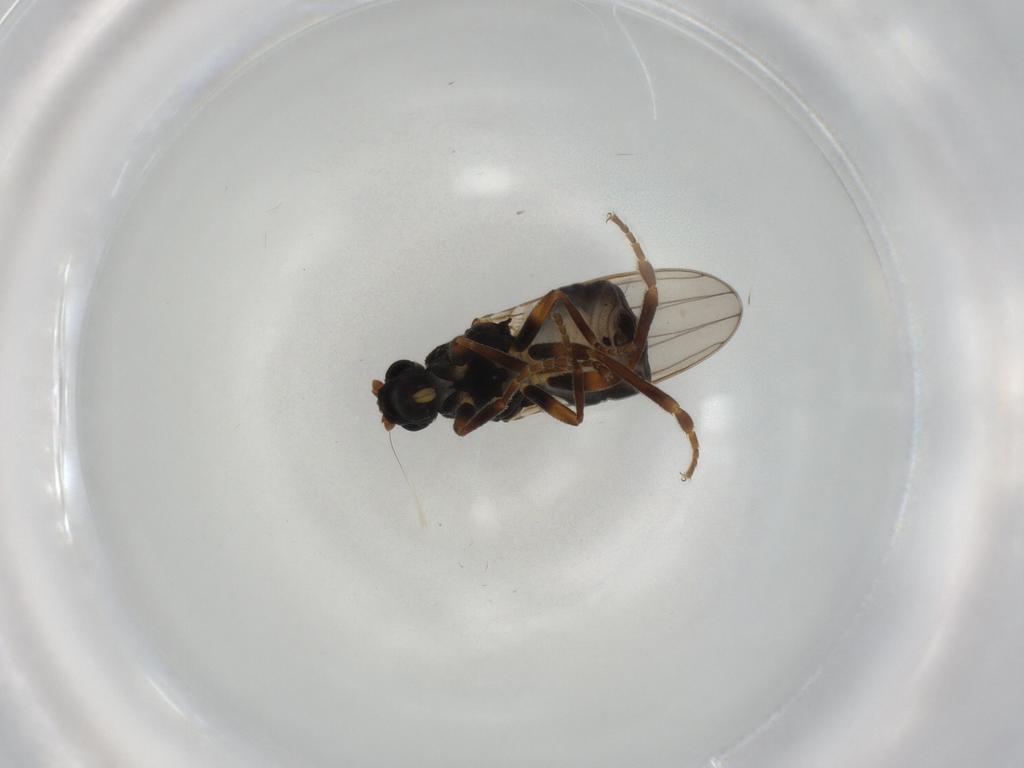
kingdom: Animalia
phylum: Arthropoda
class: Insecta
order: Diptera
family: Sphaeroceridae
